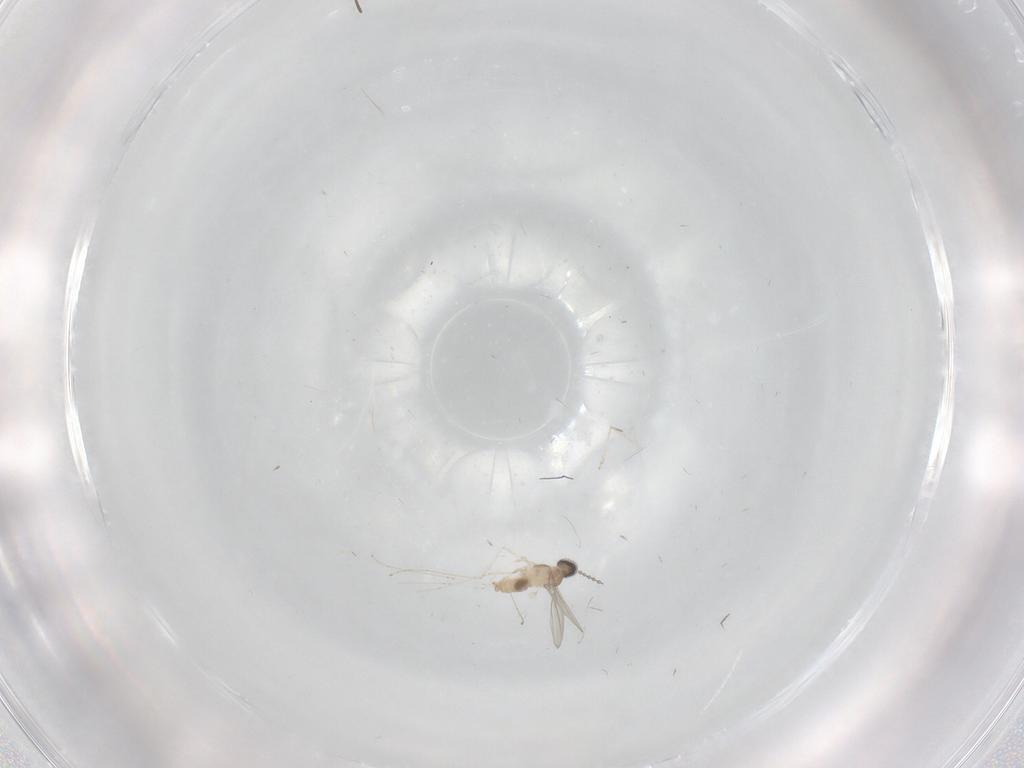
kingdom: Animalia
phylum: Arthropoda
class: Insecta
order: Diptera
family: Cecidomyiidae
